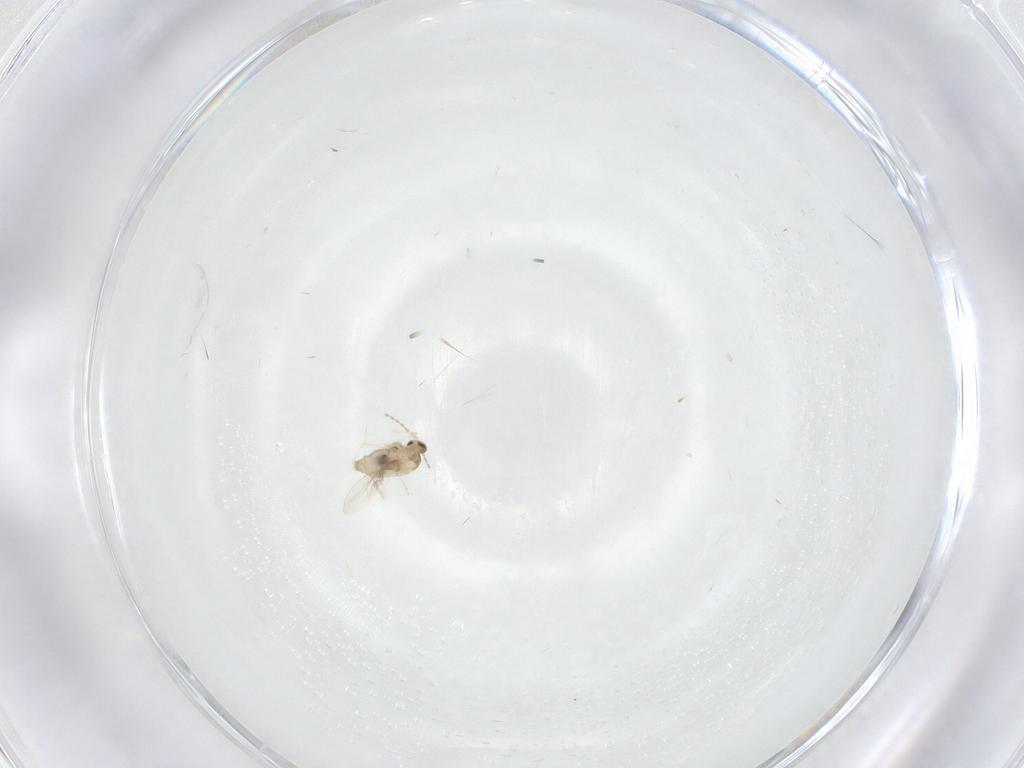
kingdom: Animalia
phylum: Arthropoda
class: Insecta
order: Diptera
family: Cecidomyiidae
